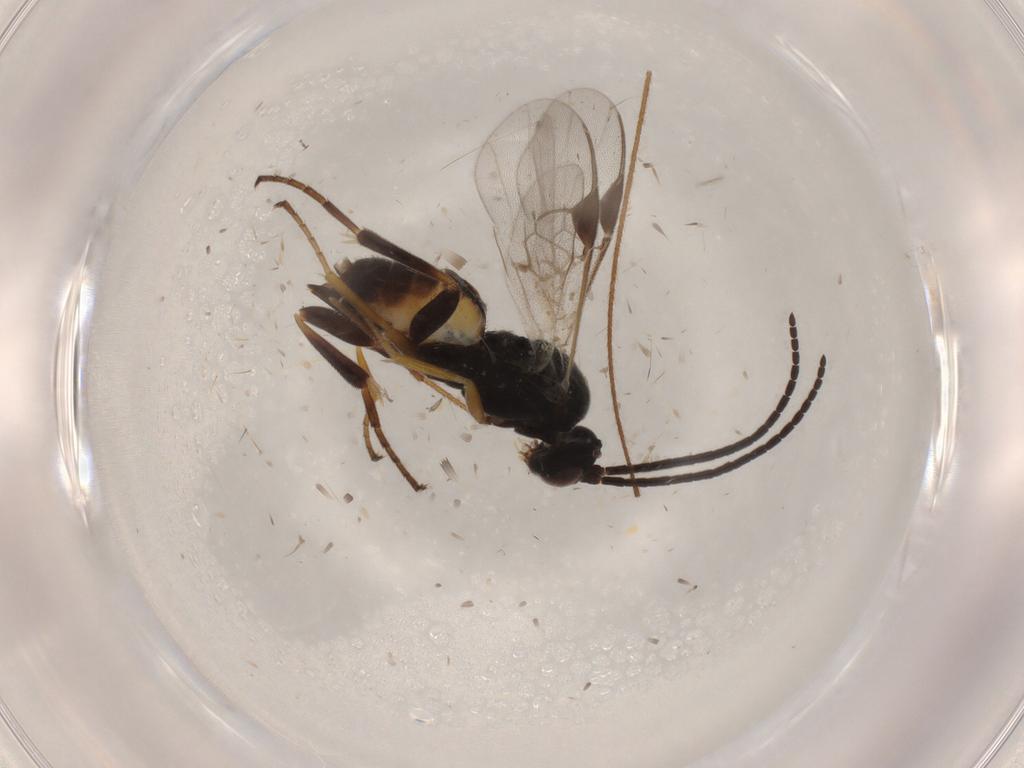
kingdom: Animalia
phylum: Arthropoda
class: Insecta
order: Hymenoptera
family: Braconidae
